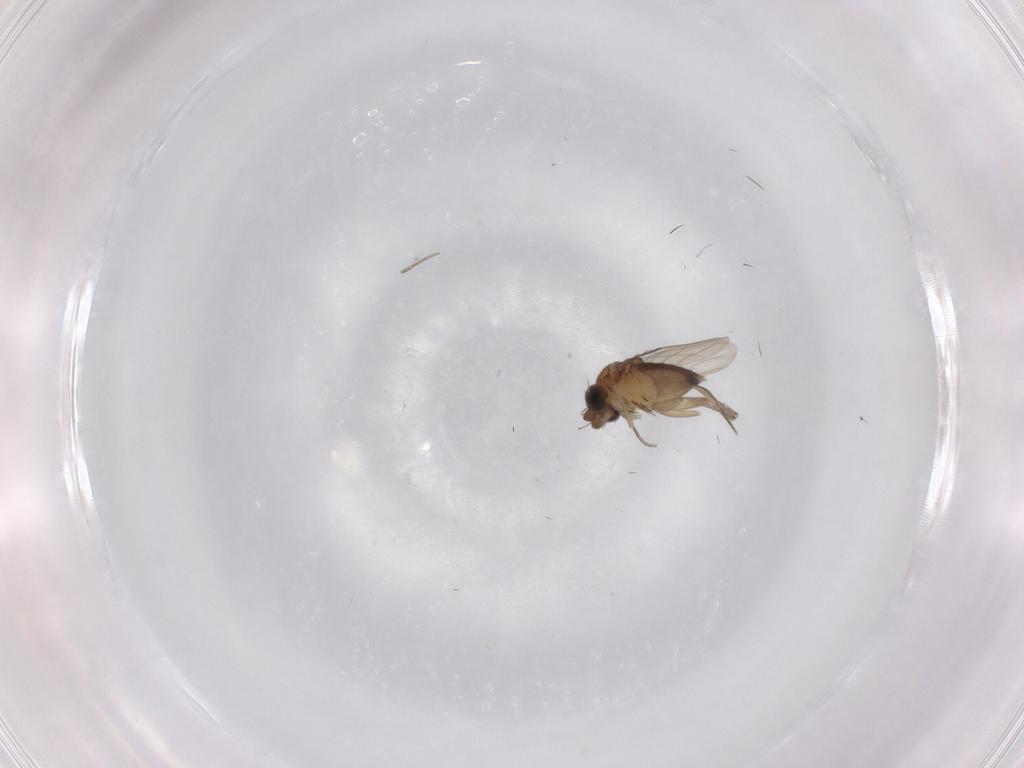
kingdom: Animalia
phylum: Arthropoda
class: Insecta
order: Diptera
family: Phoridae
